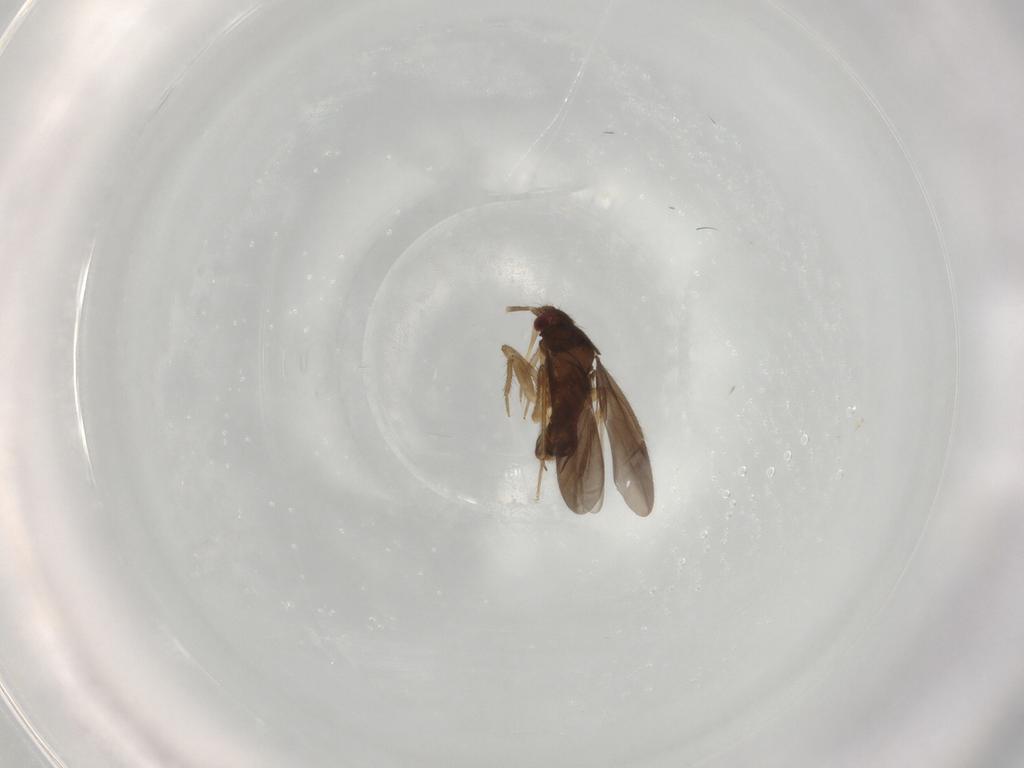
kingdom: Animalia
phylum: Arthropoda
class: Insecta
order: Hemiptera
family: Ceratocombidae
